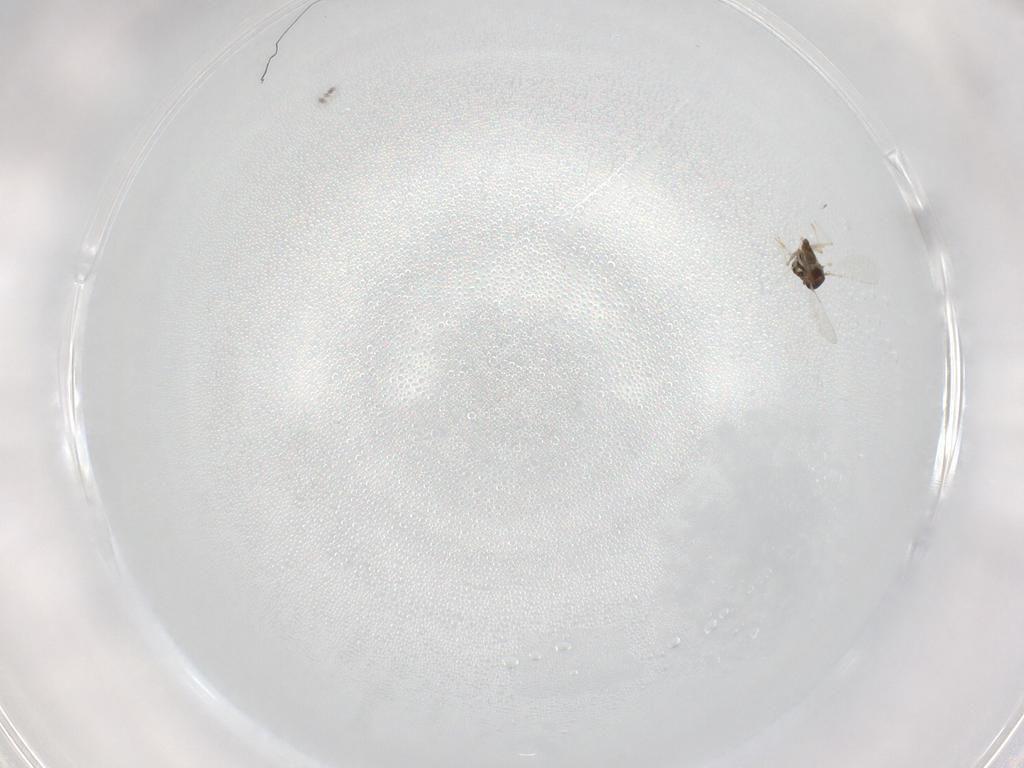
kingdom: Animalia
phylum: Arthropoda
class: Insecta
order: Diptera
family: Chironomidae
